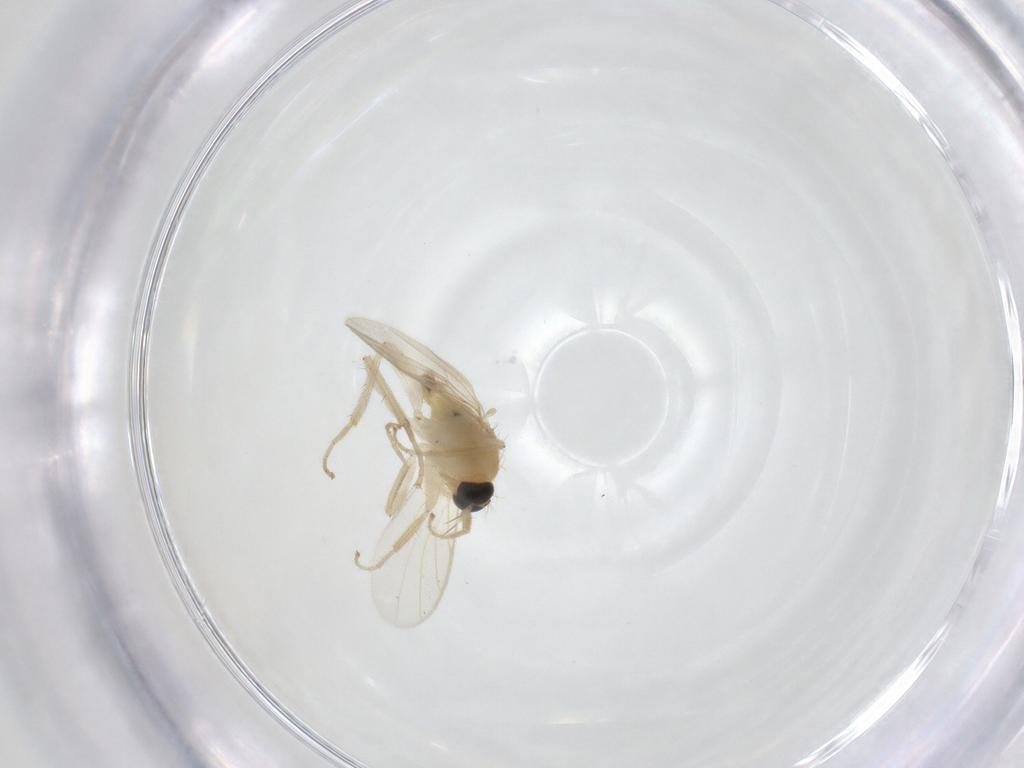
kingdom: Animalia
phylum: Arthropoda
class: Insecta
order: Diptera
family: Hybotidae
